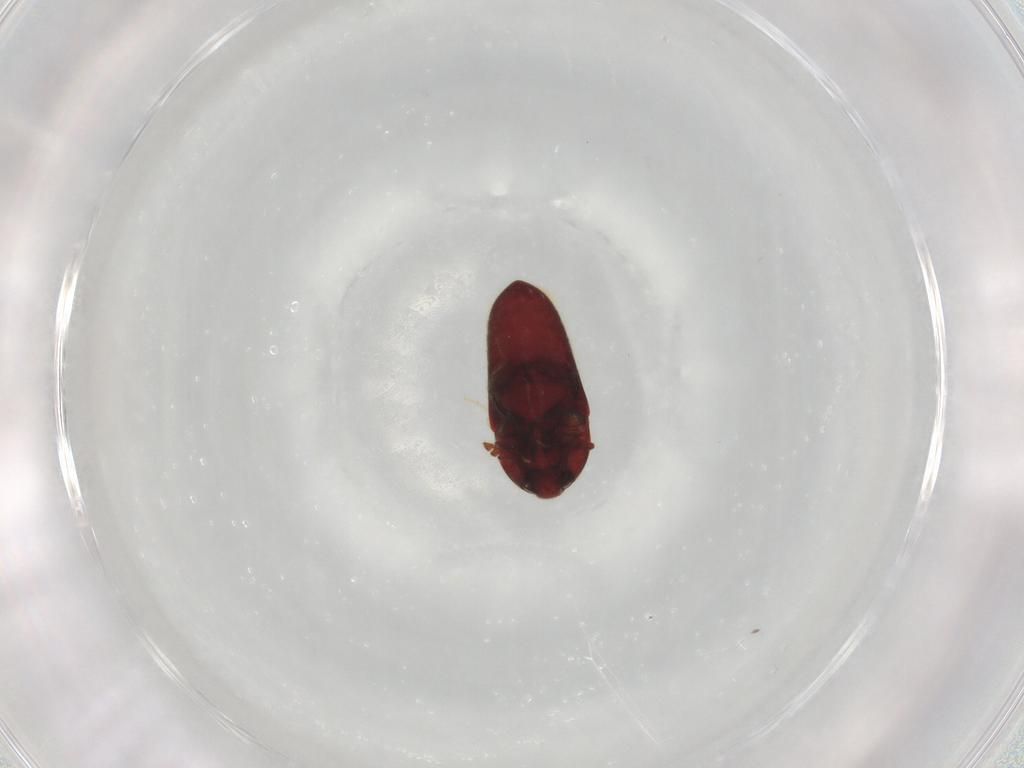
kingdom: Animalia
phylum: Arthropoda
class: Insecta
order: Coleoptera
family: Throscidae
